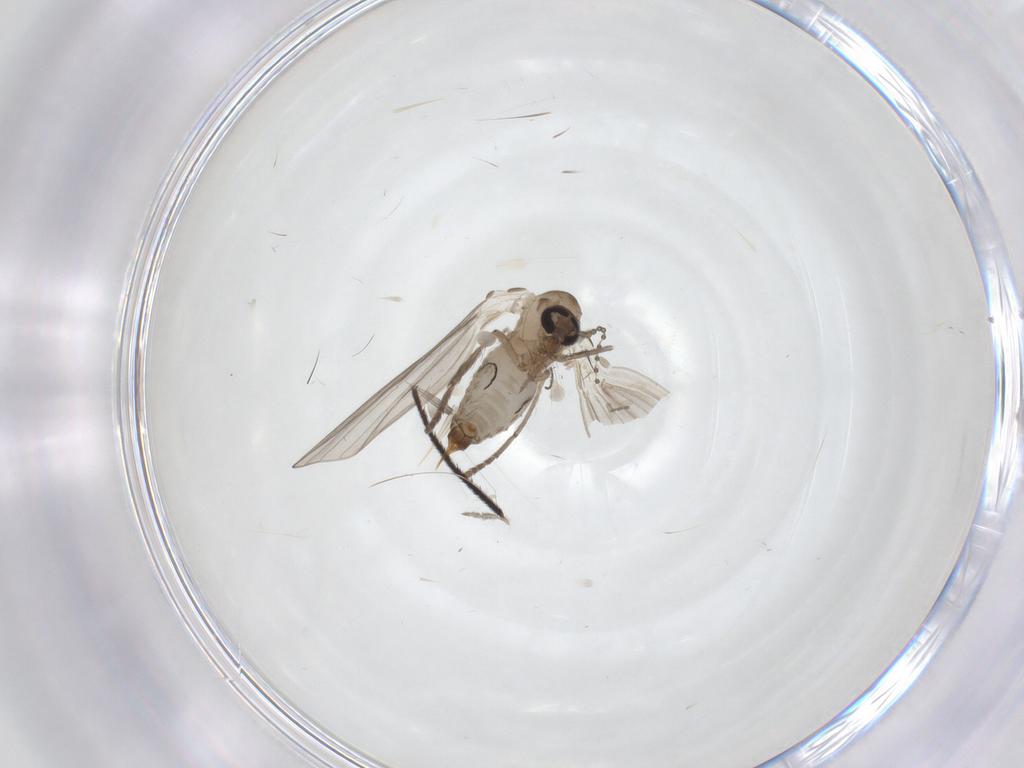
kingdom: Animalia
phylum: Arthropoda
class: Insecta
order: Diptera
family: Psychodidae
